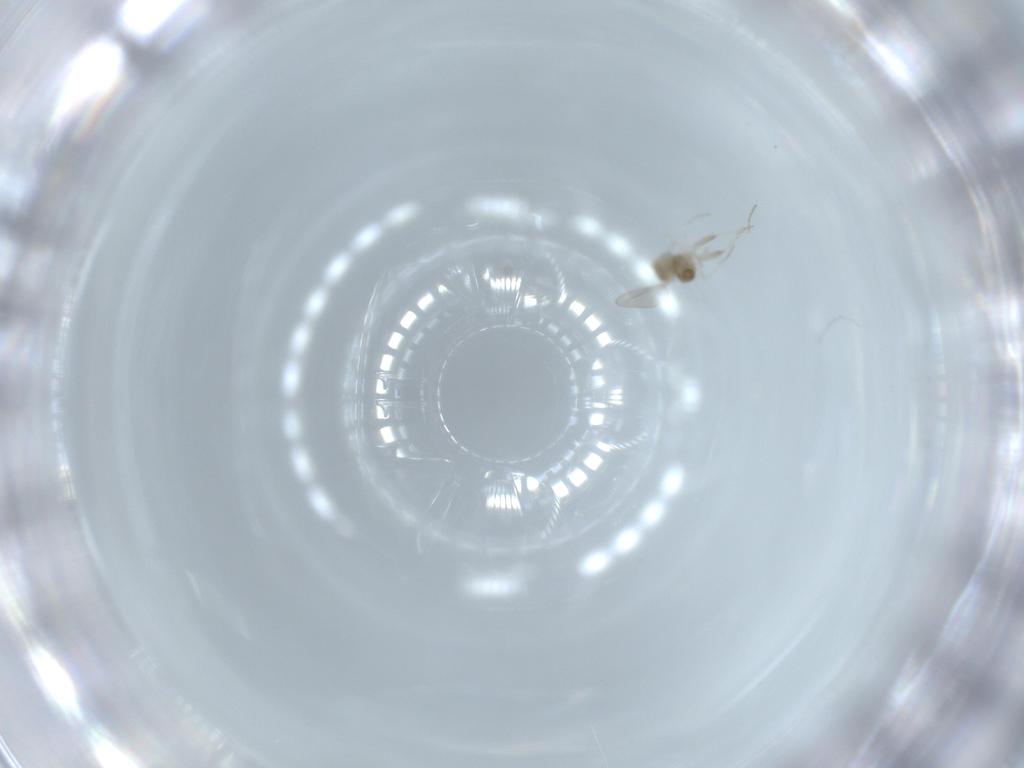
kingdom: Animalia
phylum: Arthropoda
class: Insecta
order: Diptera
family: Cecidomyiidae
